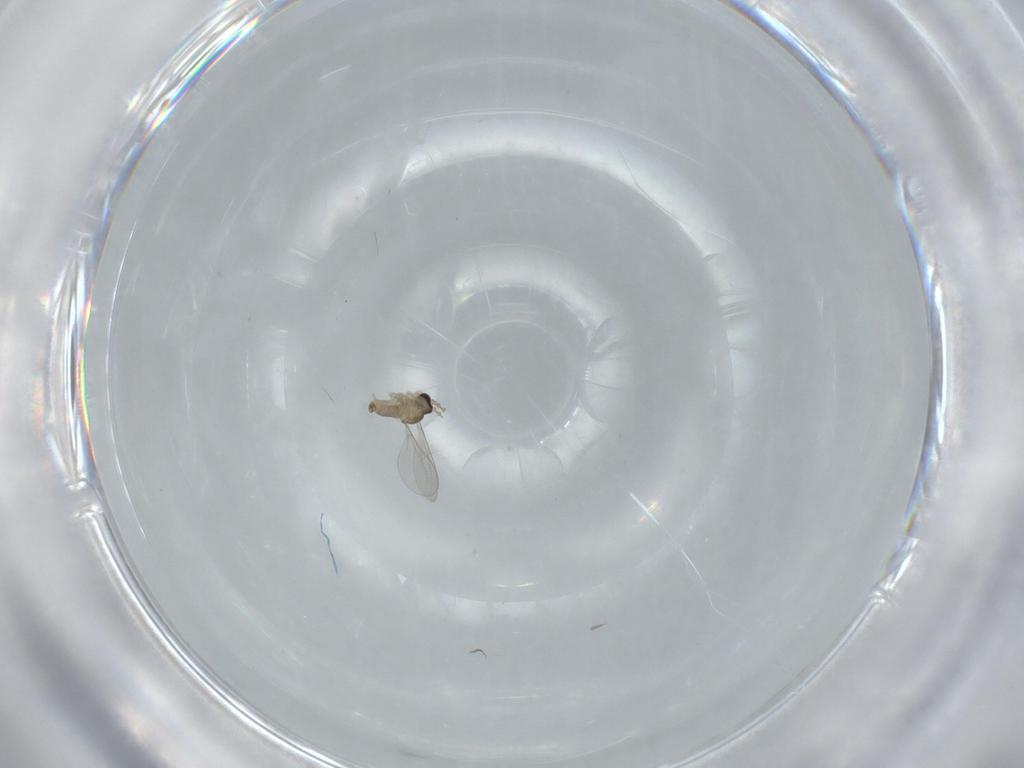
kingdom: Animalia
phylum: Arthropoda
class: Insecta
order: Diptera
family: Cecidomyiidae
